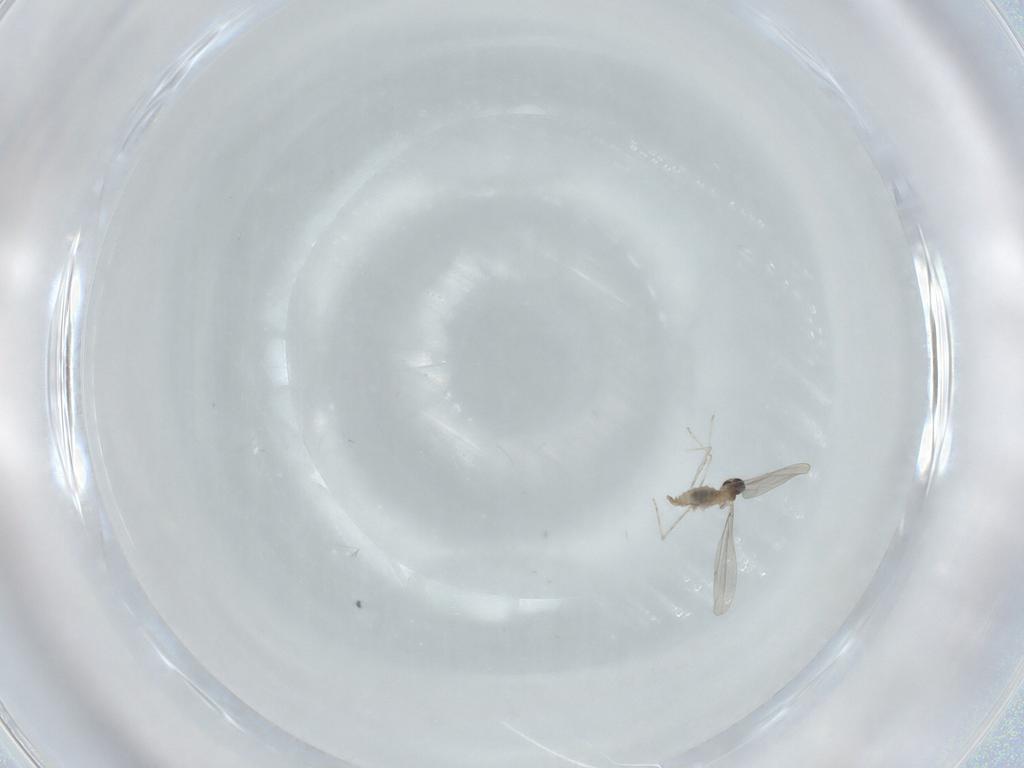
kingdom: Animalia
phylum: Arthropoda
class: Insecta
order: Diptera
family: Cecidomyiidae
